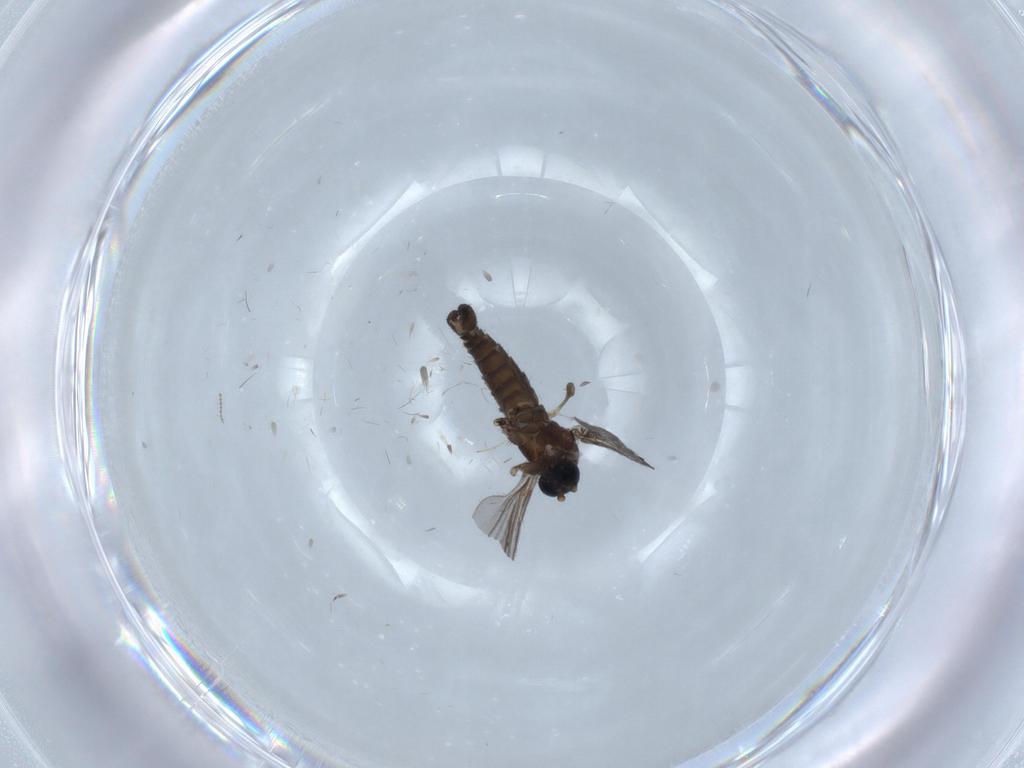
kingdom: Animalia
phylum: Arthropoda
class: Insecta
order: Diptera
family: Sciaridae
